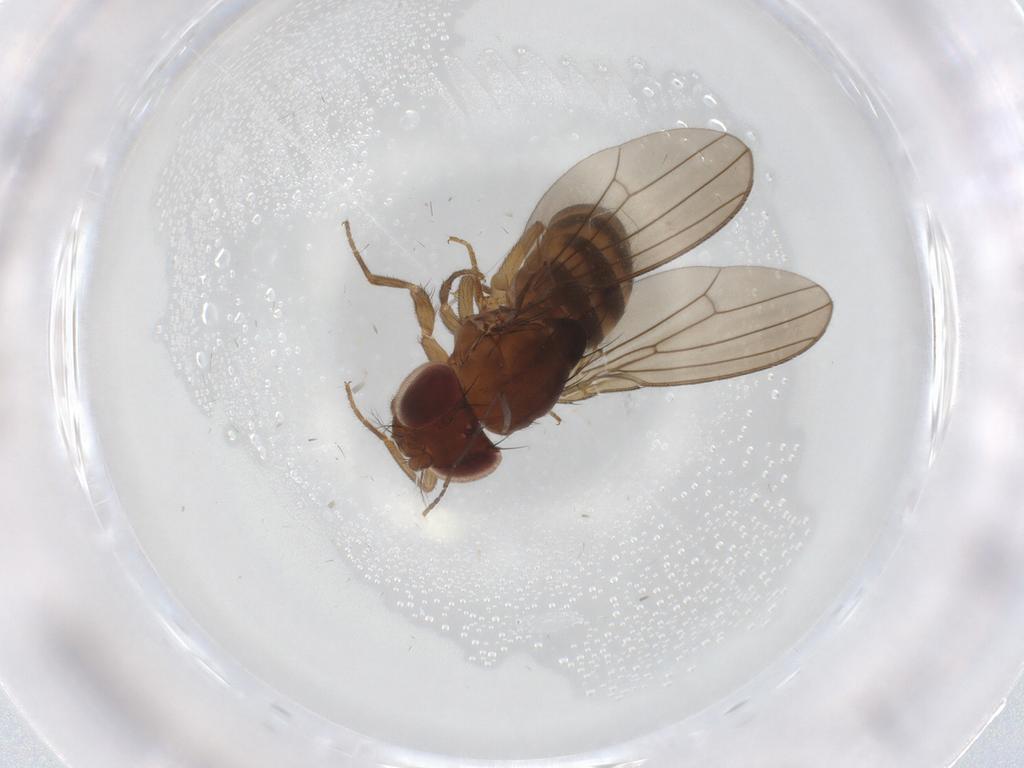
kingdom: Animalia
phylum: Arthropoda
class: Insecta
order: Diptera
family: Drosophilidae
